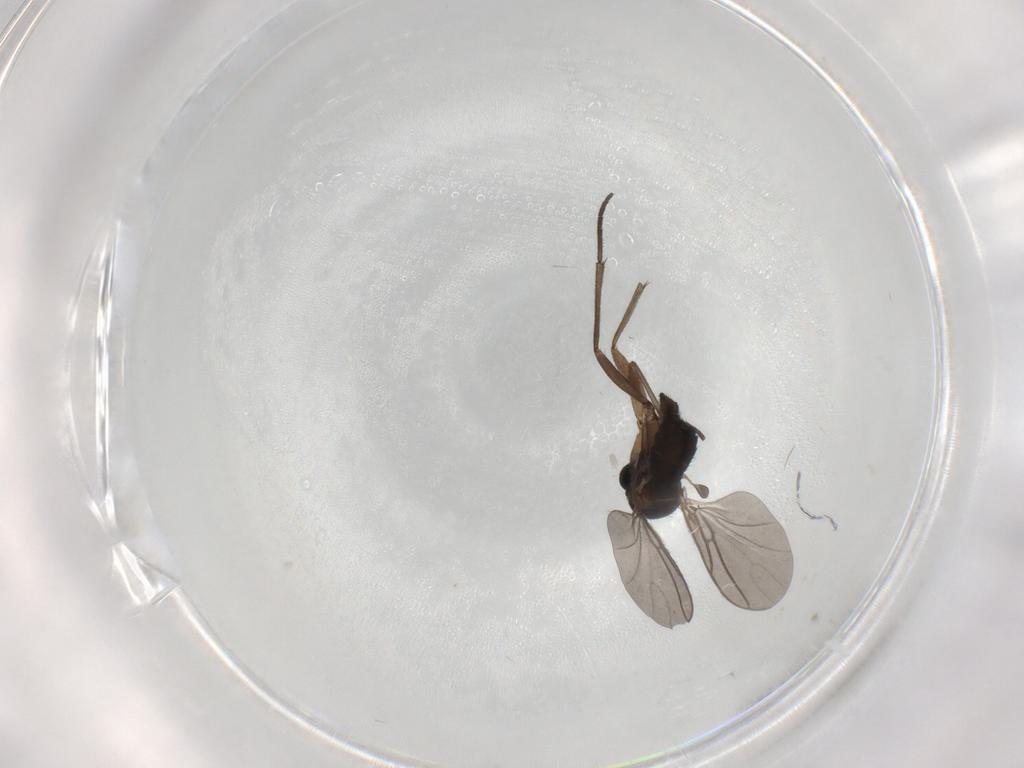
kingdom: Animalia
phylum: Arthropoda
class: Insecta
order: Diptera
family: Sciaridae
